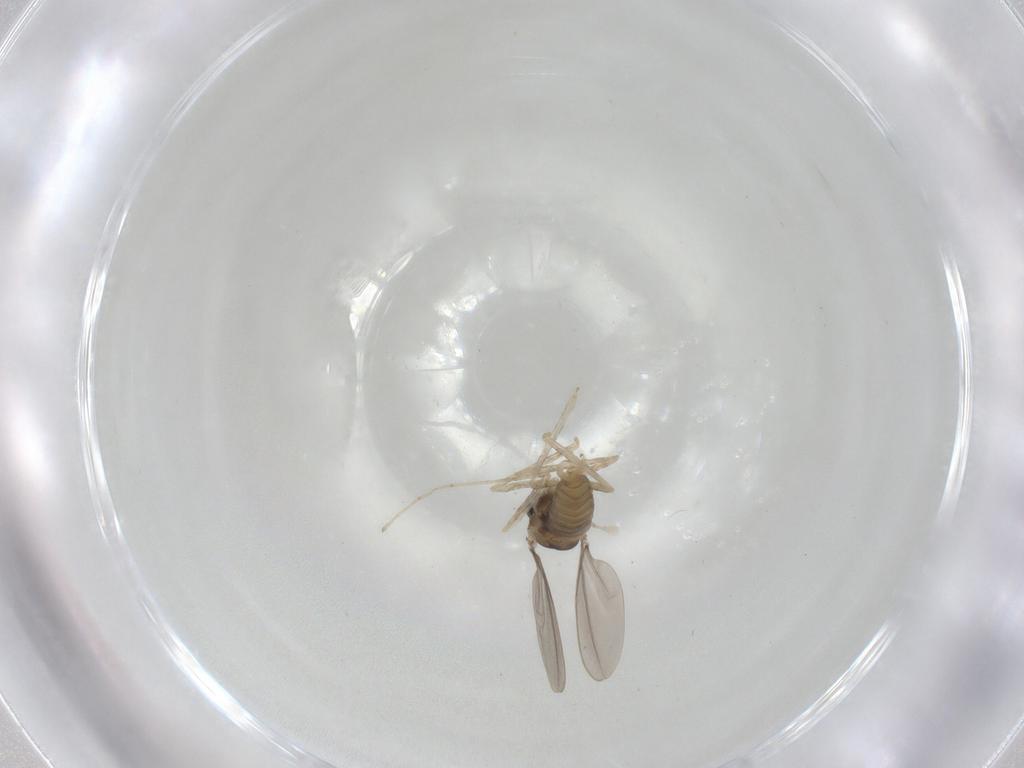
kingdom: Animalia
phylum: Arthropoda
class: Insecta
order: Diptera
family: Cecidomyiidae
